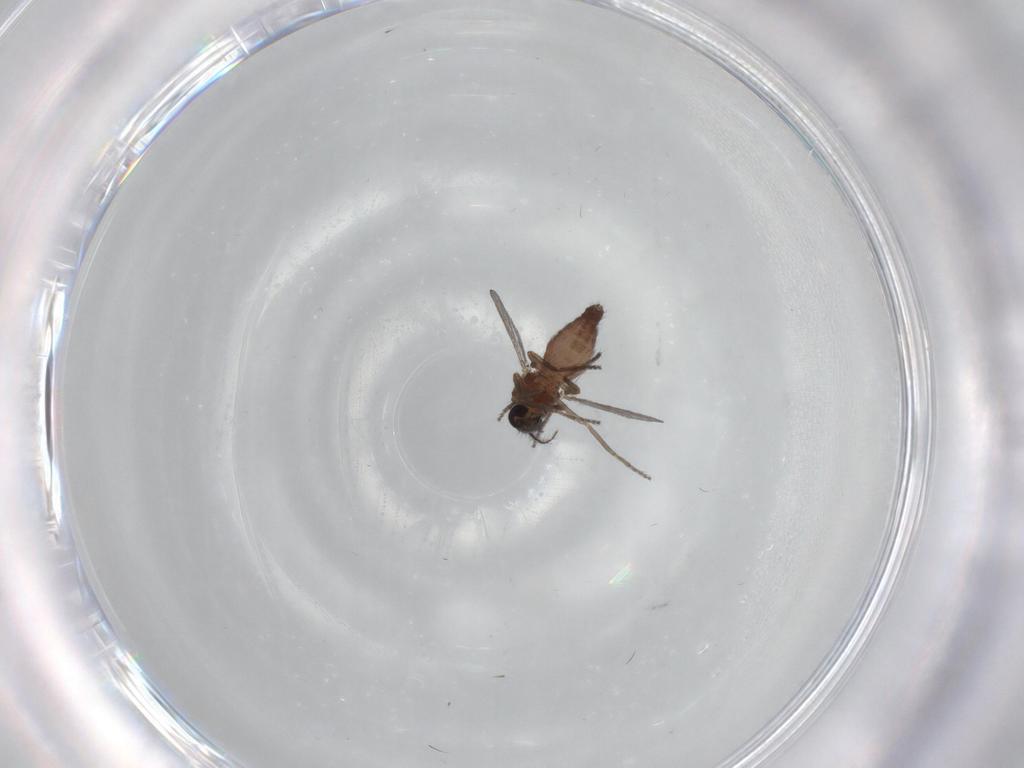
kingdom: Animalia
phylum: Arthropoda
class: Insecta
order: Diptera
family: Ceratopogonidae
